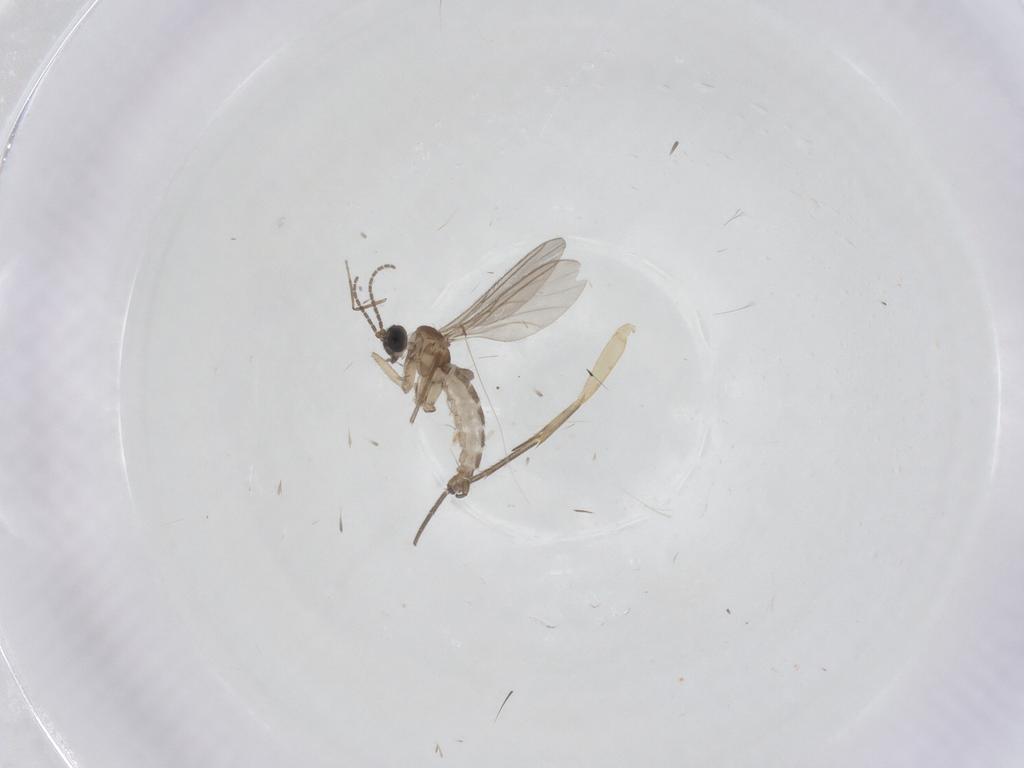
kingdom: Animalia
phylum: Arthropoda
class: Insecta
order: Diptera
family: Mycetophilidae
